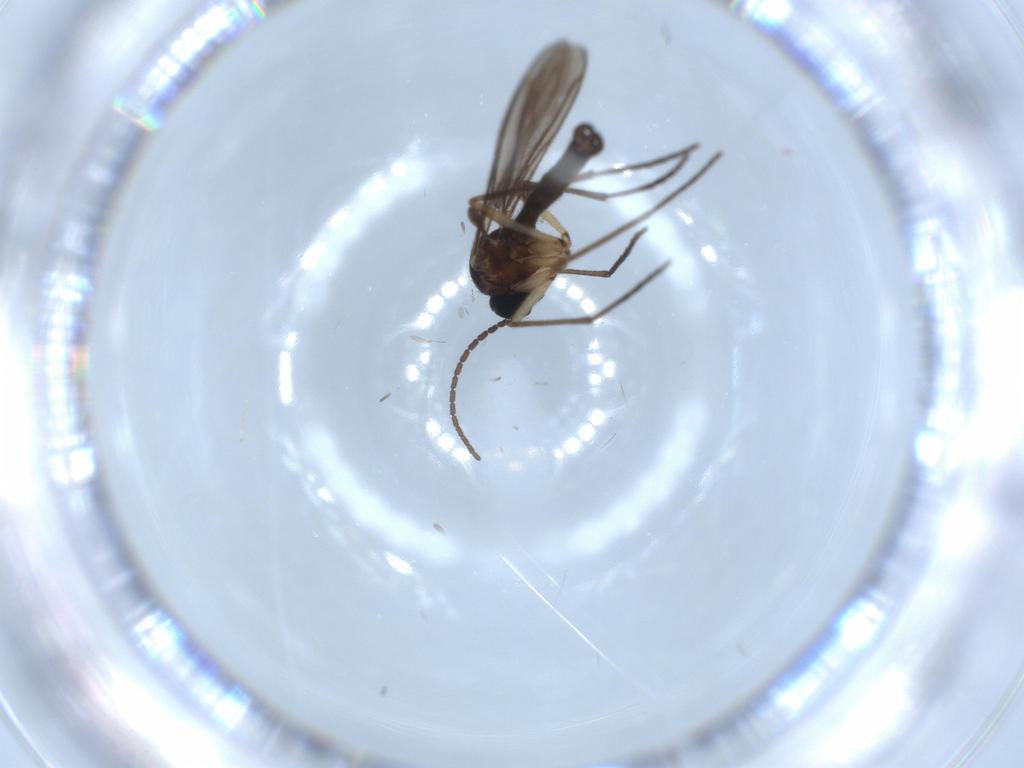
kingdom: Animalia
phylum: Arthropoda
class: Insecta
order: Diptera
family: Sciaridae
